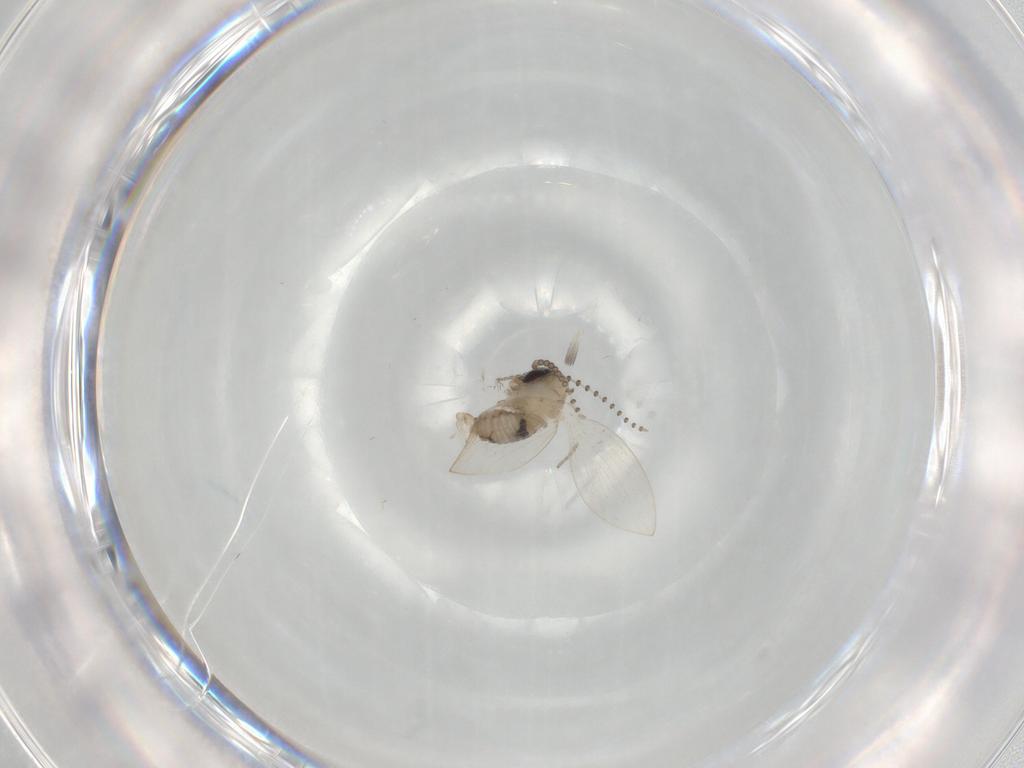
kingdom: Animalia
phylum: Arthropoda
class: Insecta
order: Diptera
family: Psychodidae
